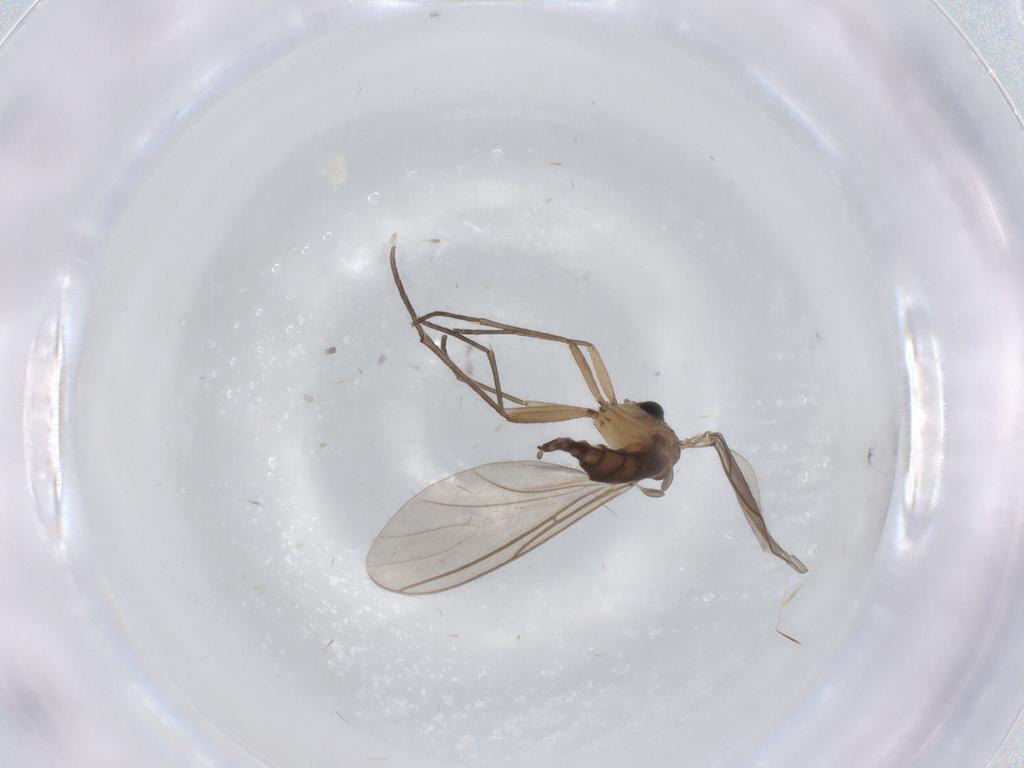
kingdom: Animalia
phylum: Arthropoda
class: Insecta
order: Diptera
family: Sciaridae
